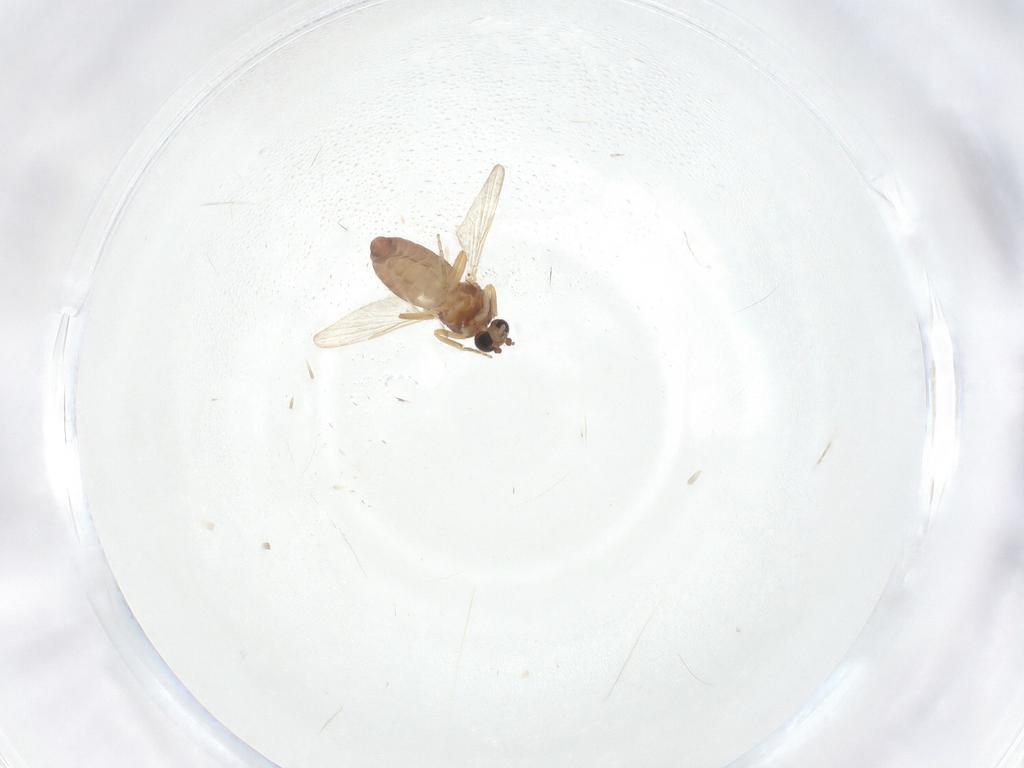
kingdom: Animalia
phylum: Arthropoda
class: Insecta
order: Diptera
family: Ceratopogonidae
